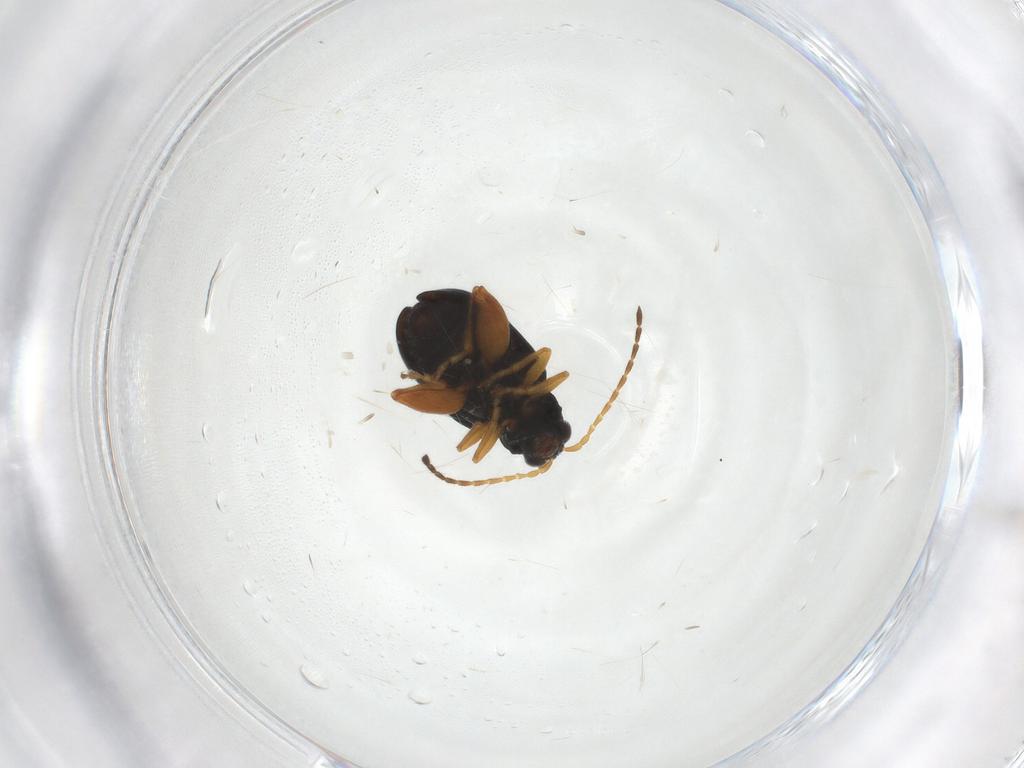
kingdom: Animalia
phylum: Arthropoda
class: Insecta
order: Coleoptera
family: Chrysomelidae
